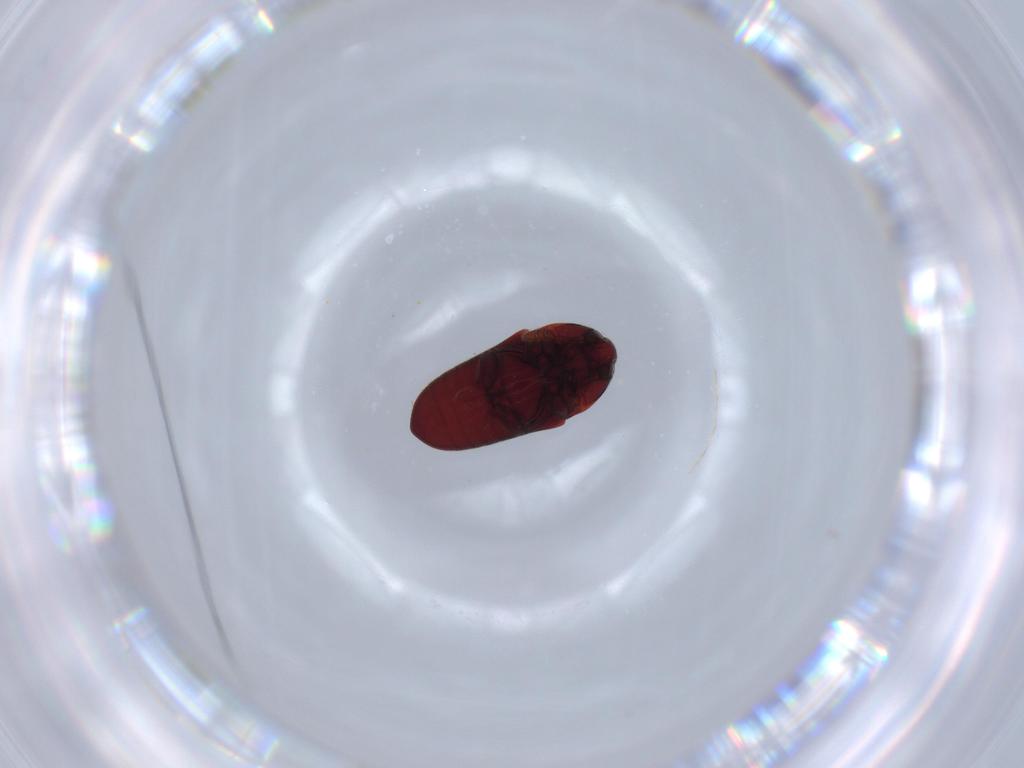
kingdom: Animalia
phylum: Arthropoda
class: Insecta
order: Coleoptera
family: Throscidae
